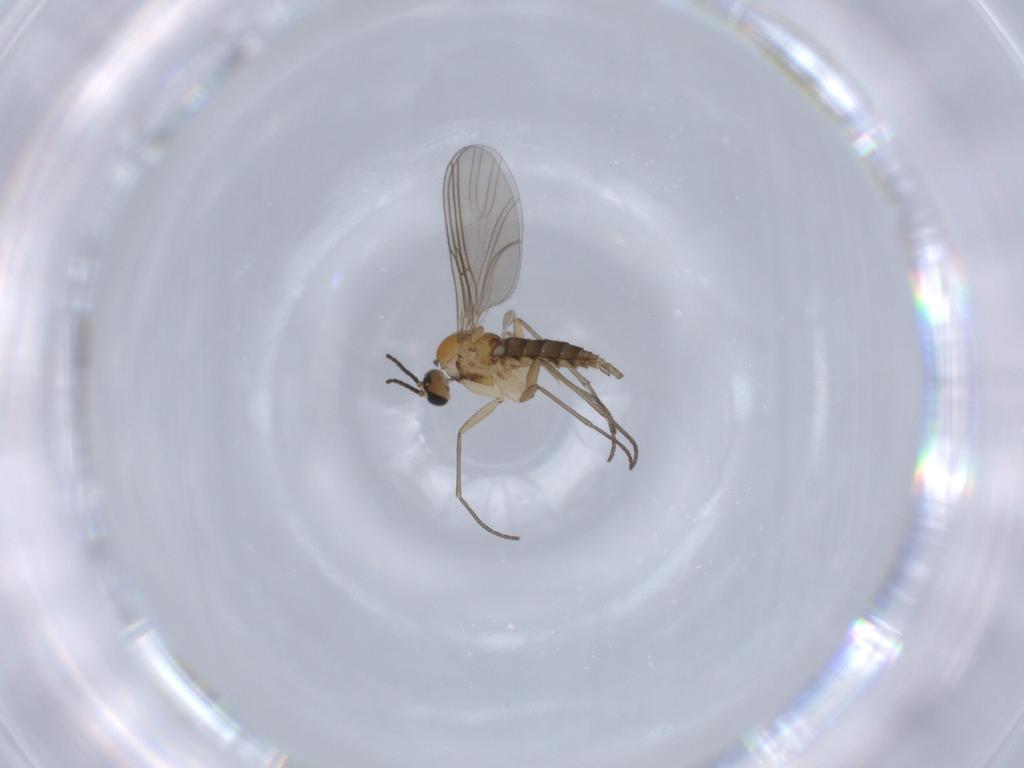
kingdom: Animalia
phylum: Arthropoda
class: Insecta
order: Diptera
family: Sciaridae
